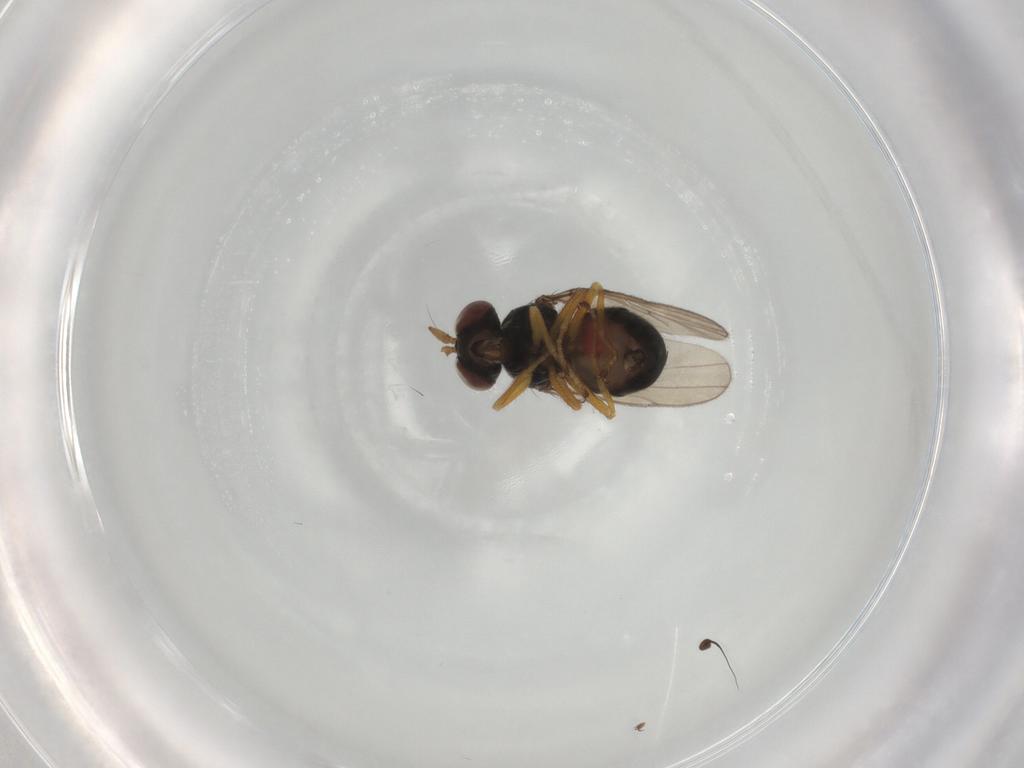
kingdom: Animalia
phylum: Arthropoda
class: Insecta
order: Diptera
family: Ephydridae
